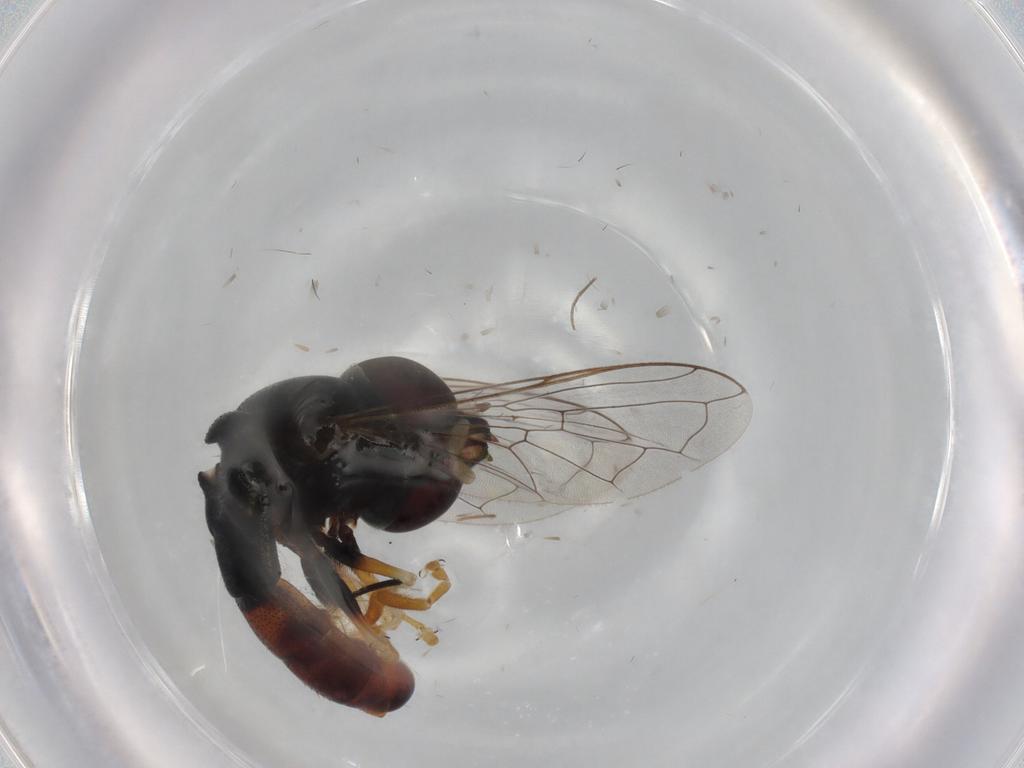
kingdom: Animalia
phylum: Arthropoda
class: Insecta
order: Diptera
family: Syrphidae
